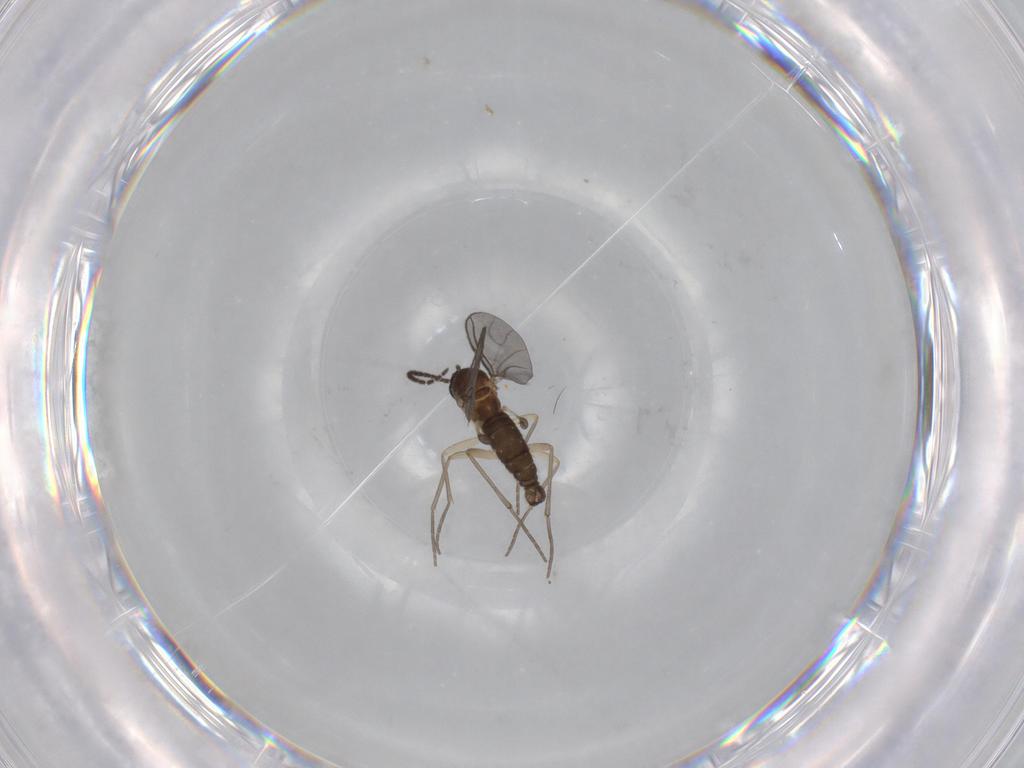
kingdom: Animalia
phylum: Arthropoda
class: Insecta
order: Diptera
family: Sciaridae
